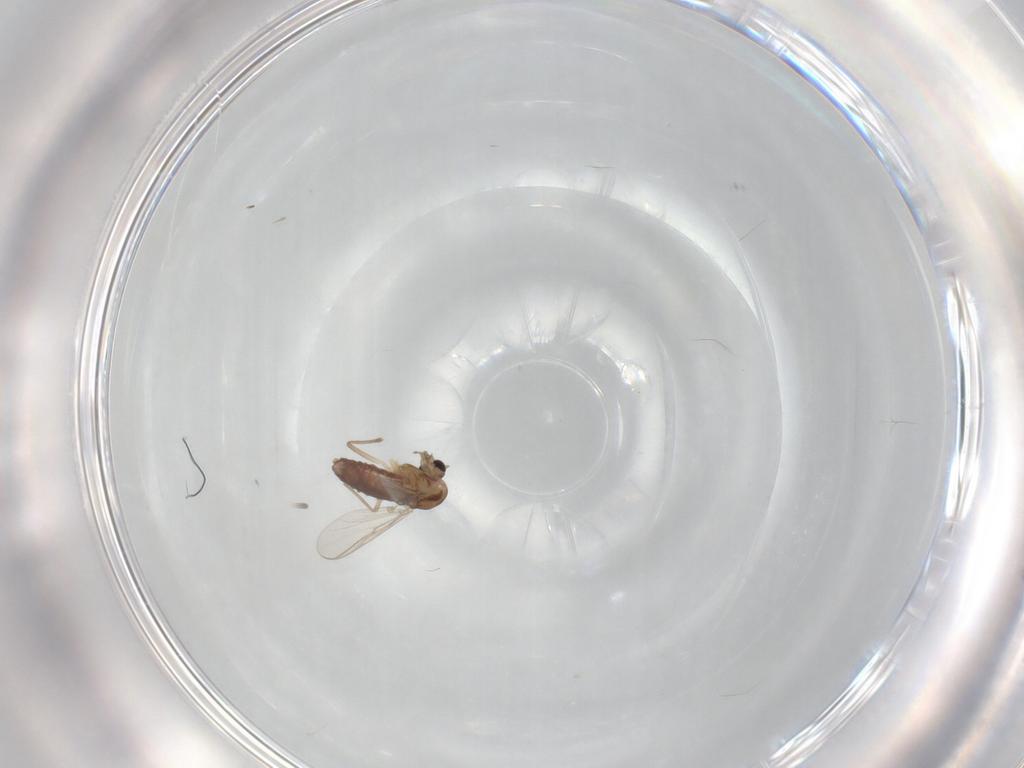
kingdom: Animalia
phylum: Arthropoda
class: Insecta
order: Diptera
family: Chironomidae
